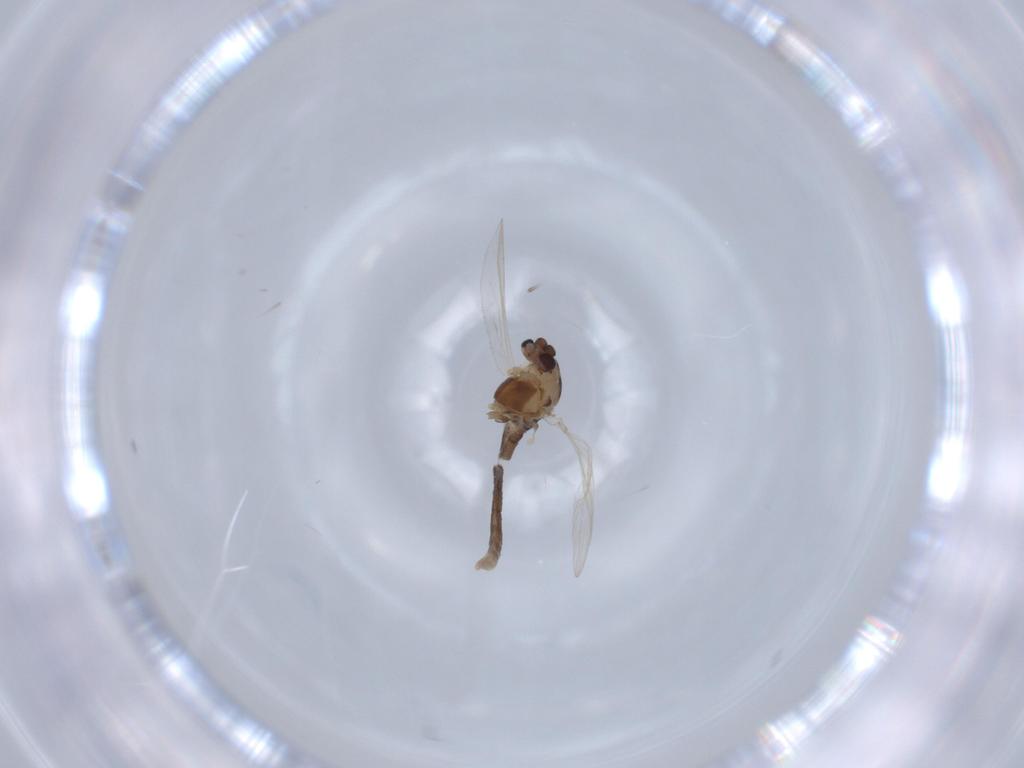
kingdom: Animalia
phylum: Arthropoda
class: Insecta
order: Diptera
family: Chironomidae
